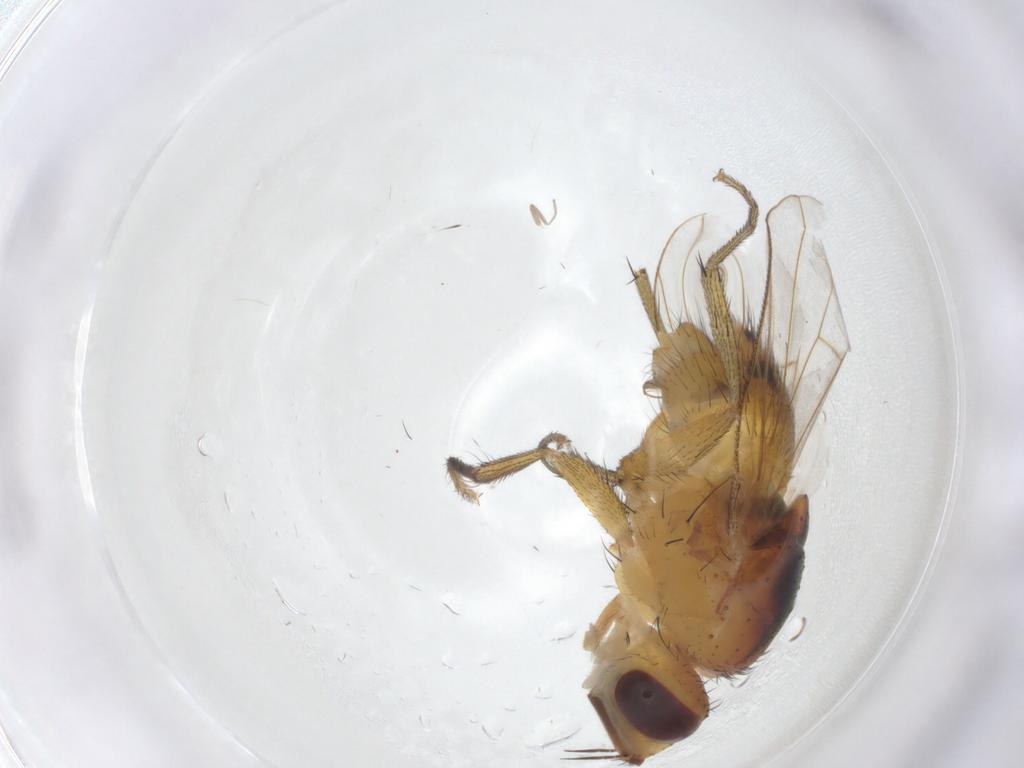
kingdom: Animalia
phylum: Arthropoda
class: Insecta
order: Diptera
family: Muscidae
